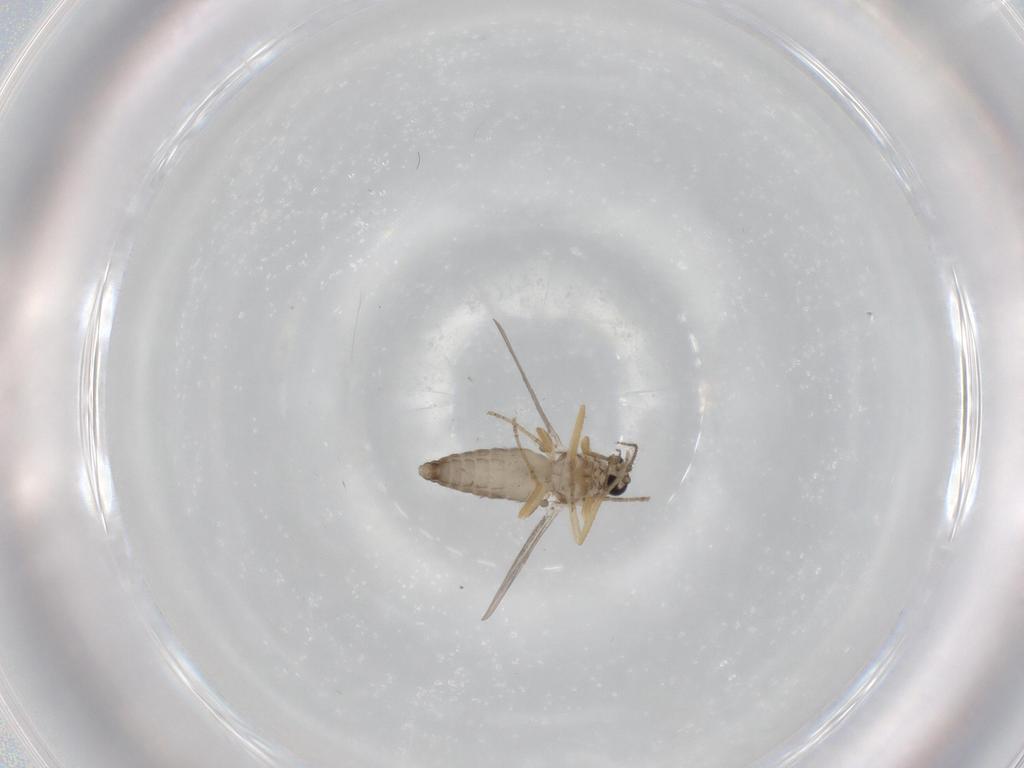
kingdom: Animalia
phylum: Arthropoda
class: Insecta
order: Diptera
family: Ceratopogonidae
